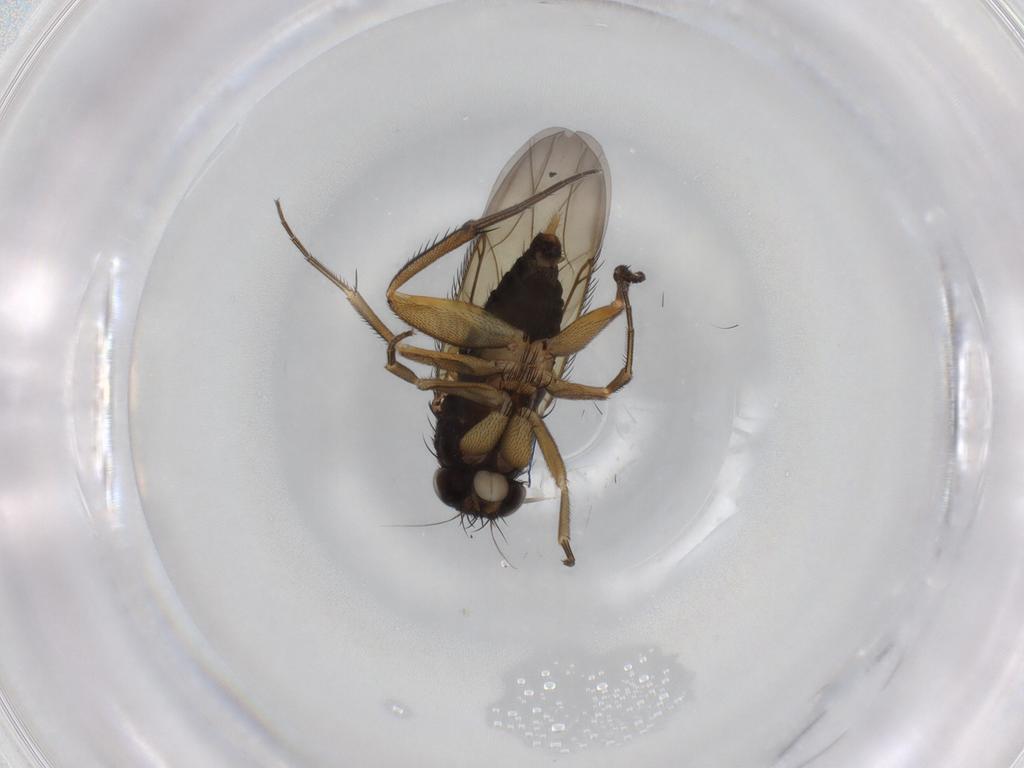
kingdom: Animalia
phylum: Arthropoda
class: Insecta
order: Diptera
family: Phoridae
